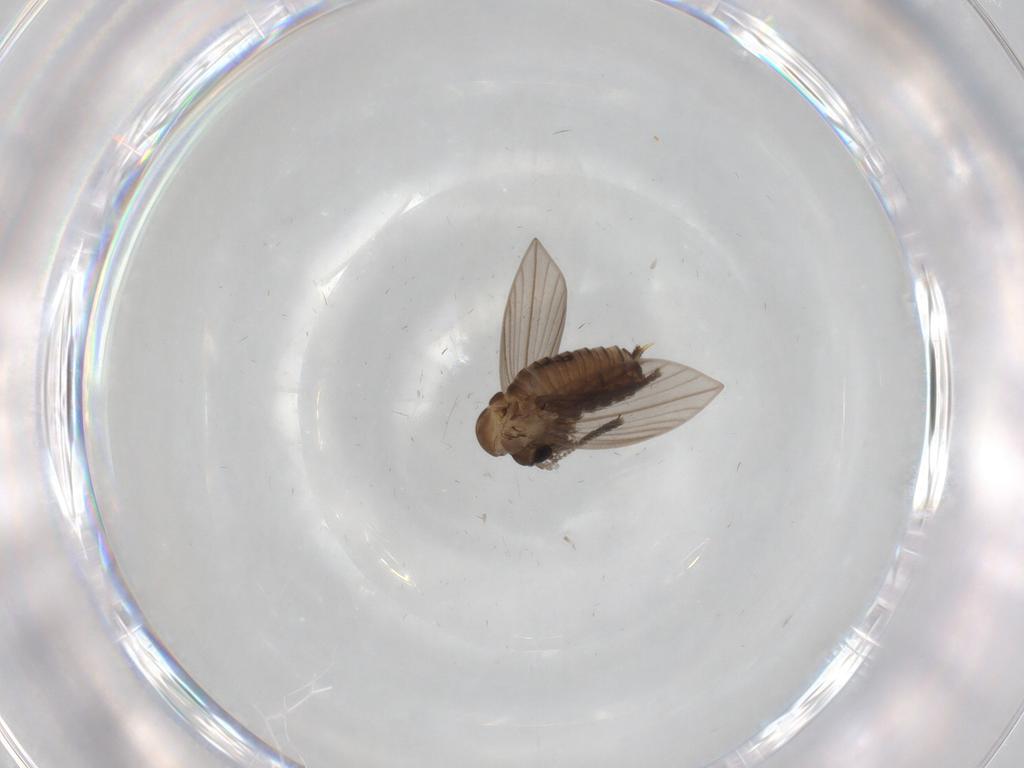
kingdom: Animalia
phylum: Arthropoda
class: Insecta
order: Diptera
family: Psychodidae
